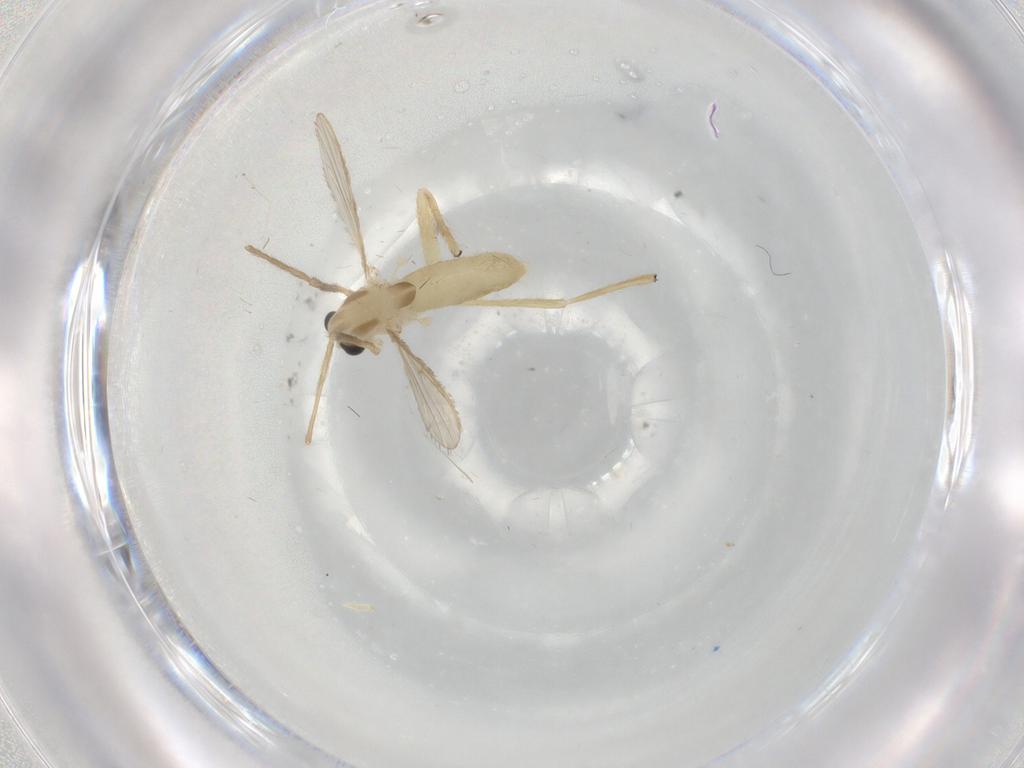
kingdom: Animalia
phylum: Arthropoda
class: Insecta
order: Diptera
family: Chironomidae
